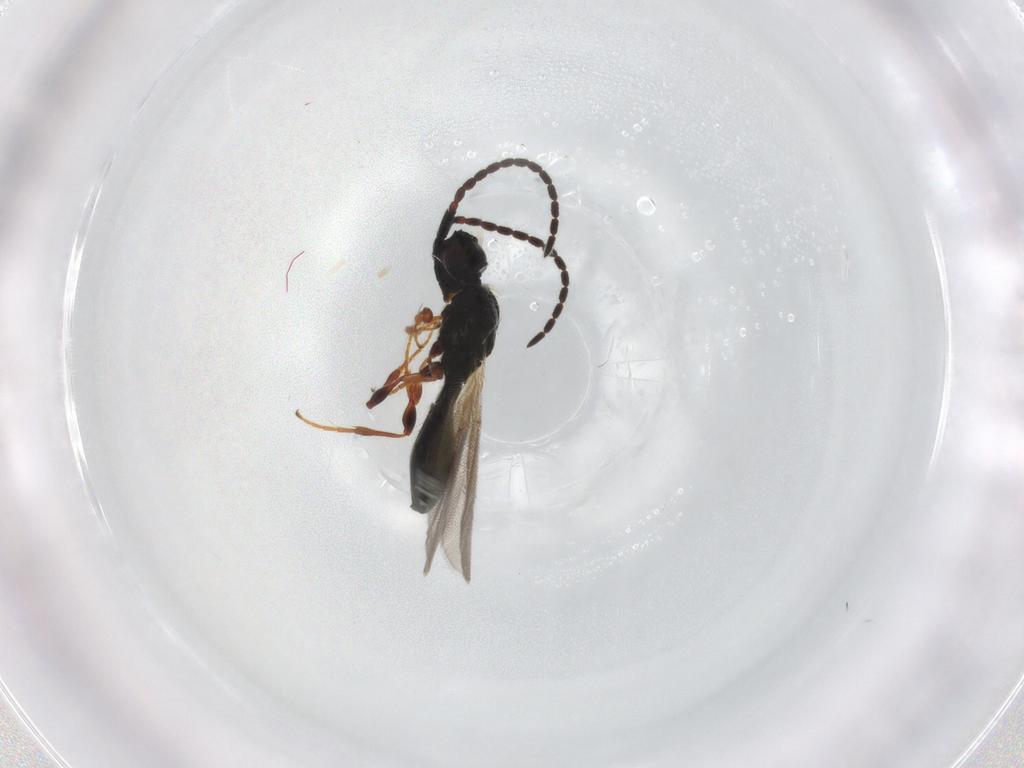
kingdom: Animalia
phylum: Arthropoda
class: Insecta
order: Hymenoptera
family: Diapriidae
